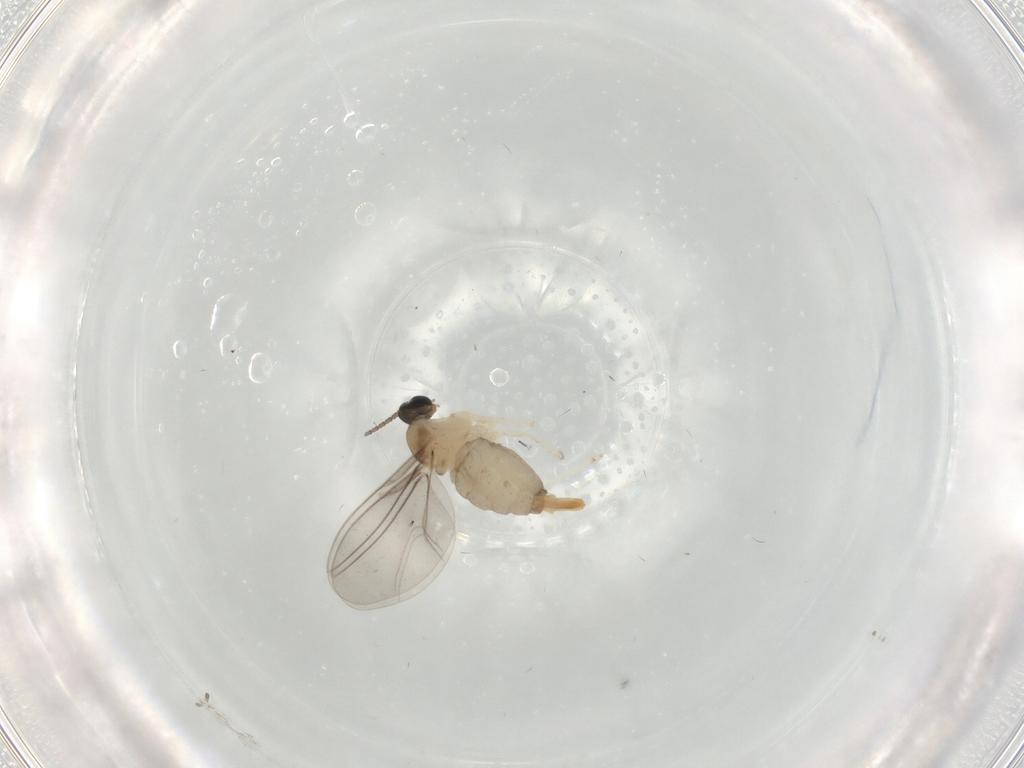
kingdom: Animalia
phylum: Arthropoda
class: Insecta
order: Diptera
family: Cecidomyiidae
